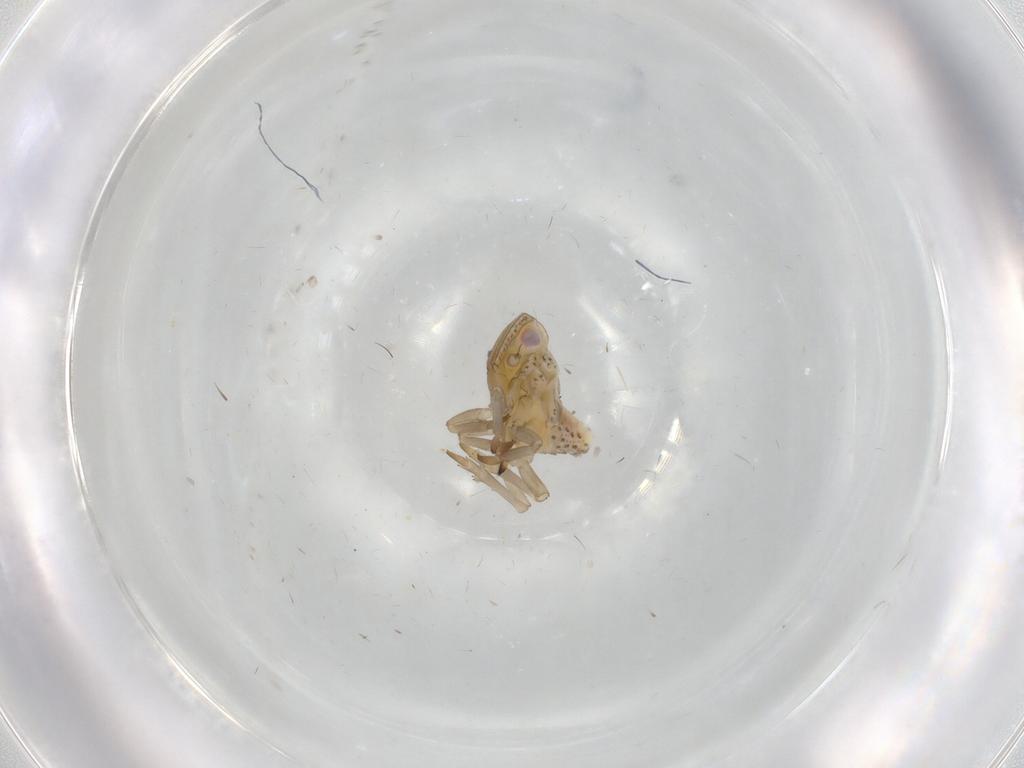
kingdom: Animalia
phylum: Arthropoda
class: Insecta
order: Hemiptera
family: Tropiduchidae
